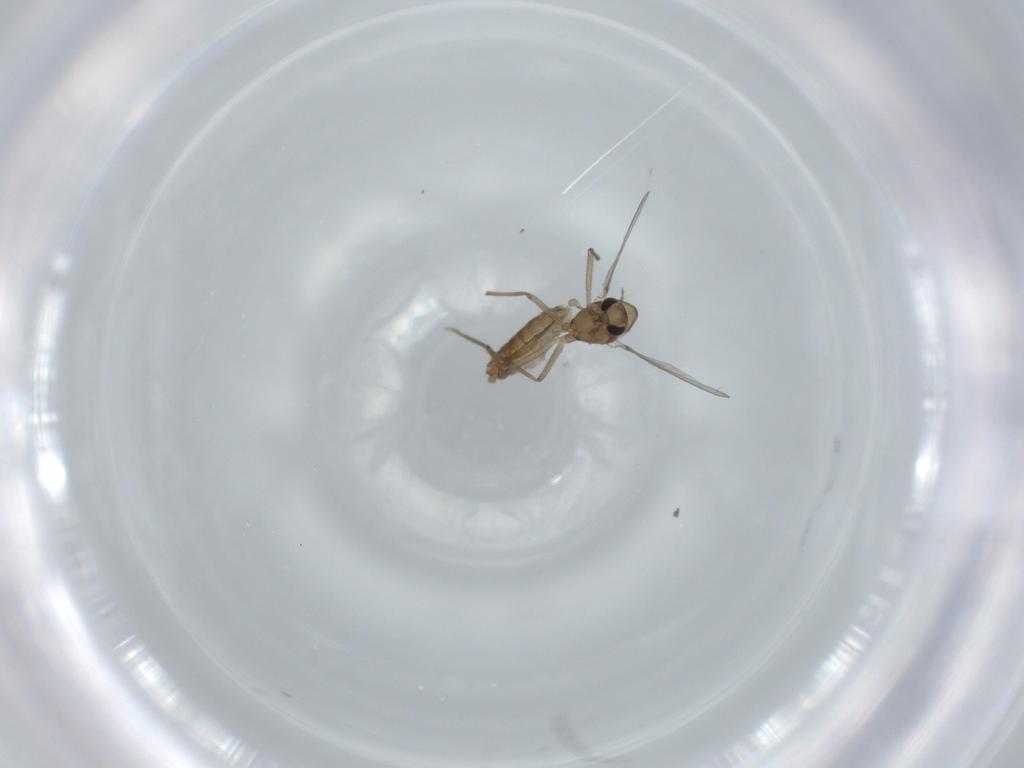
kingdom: Animalia
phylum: Arthropoda
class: Insecta
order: Diptera
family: Chironomidae
